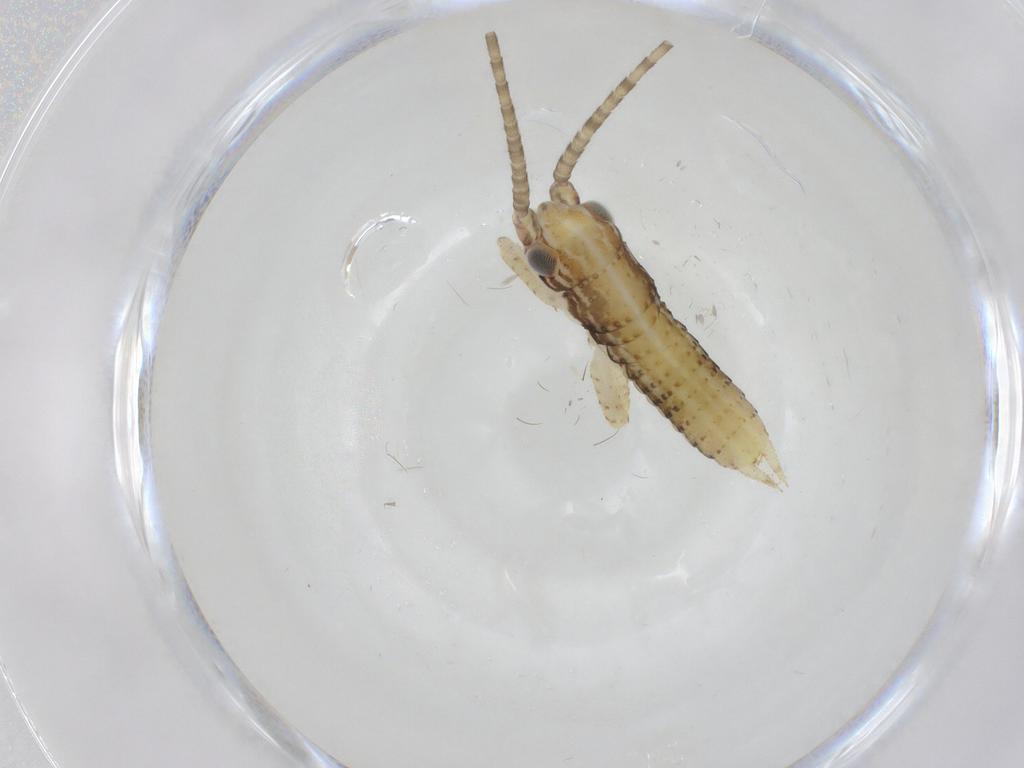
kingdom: Animalia
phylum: Arthropoda
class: Insecta
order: Orthoptera
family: Gryllidae
